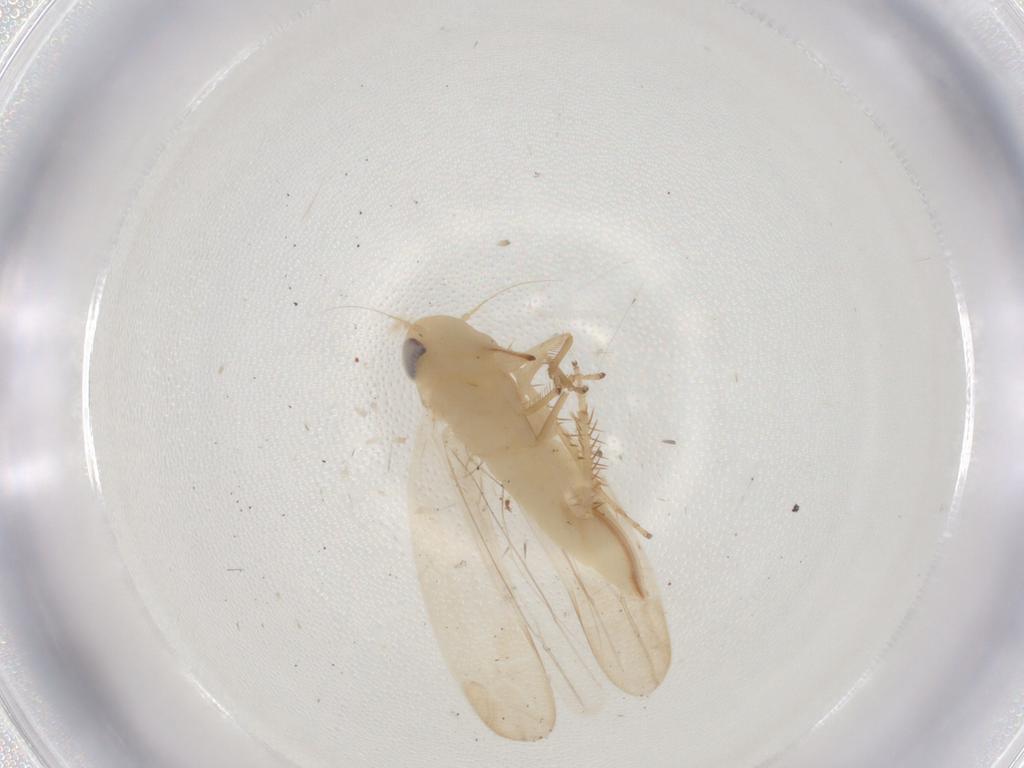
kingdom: Animalia
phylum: Arthropoda
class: Insecta
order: Hemiptera
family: Cicadellidae
